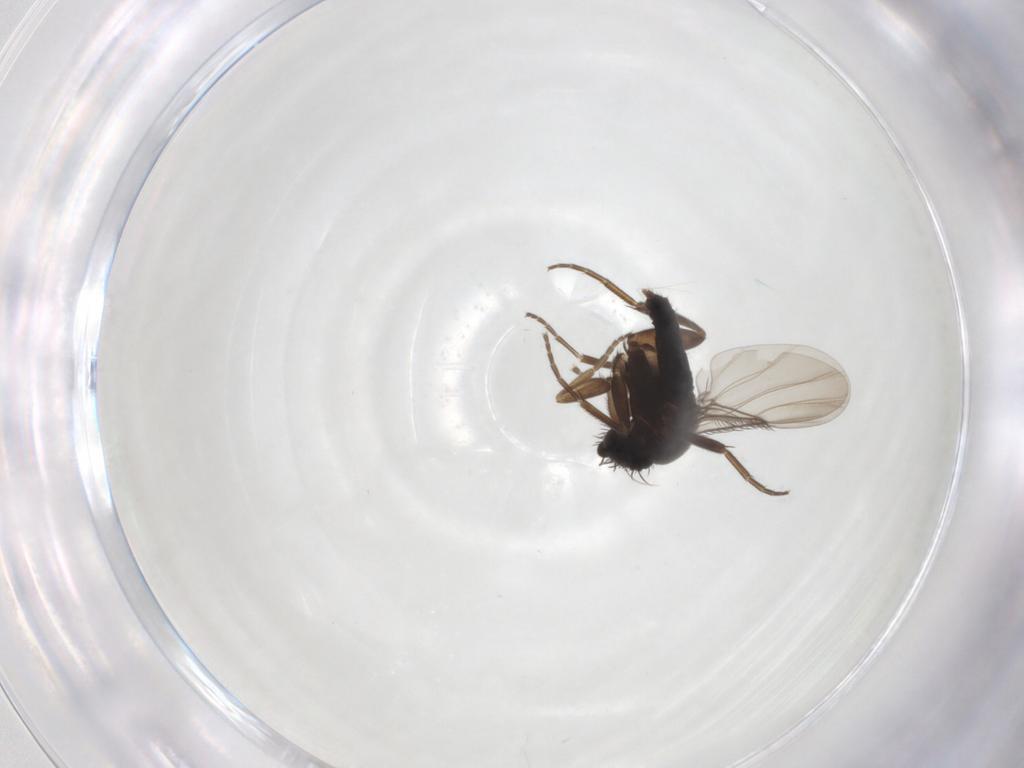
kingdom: Animalia
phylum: Arthropoda
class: Insecta
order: Diptera
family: Phoridae
